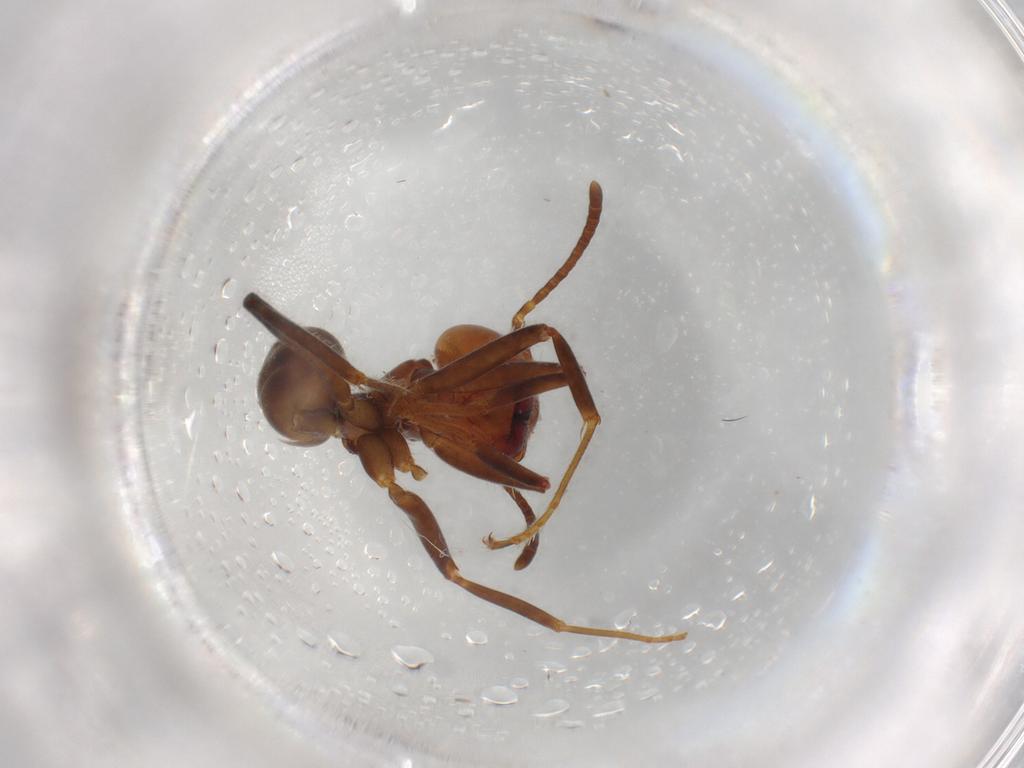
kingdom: Animalia
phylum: Arthropoda
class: Insecta
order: Hymenoptera
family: Formicidae
